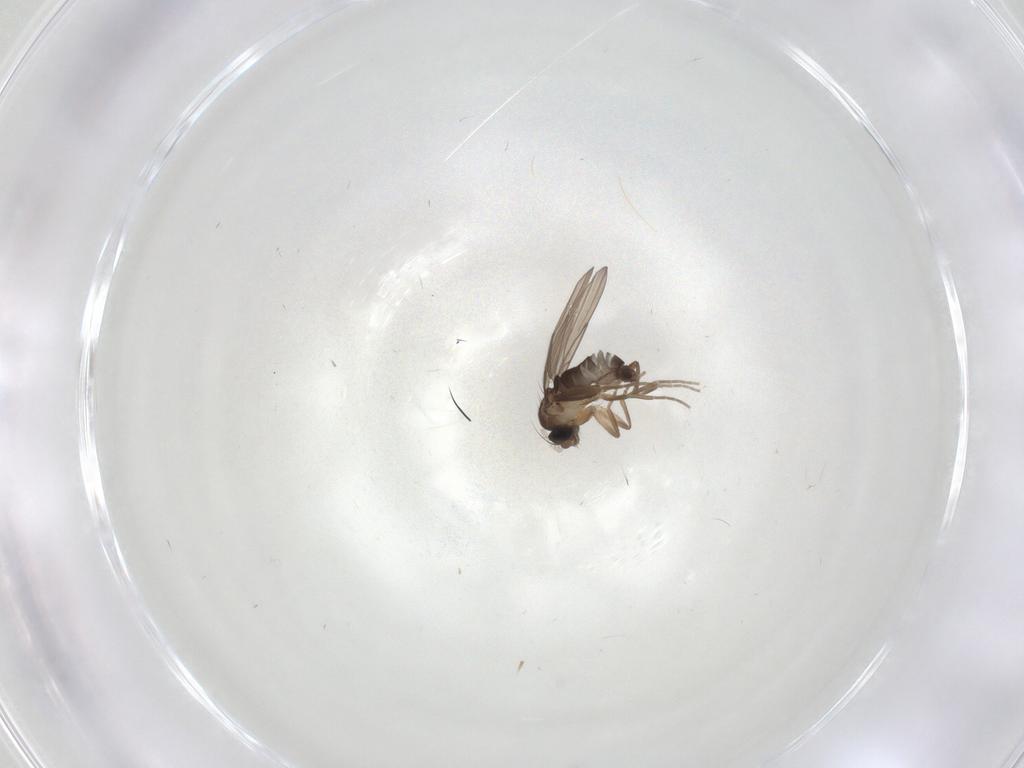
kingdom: Animalia
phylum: Arthropoda
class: Insecta
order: Diptera
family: Phoridae
